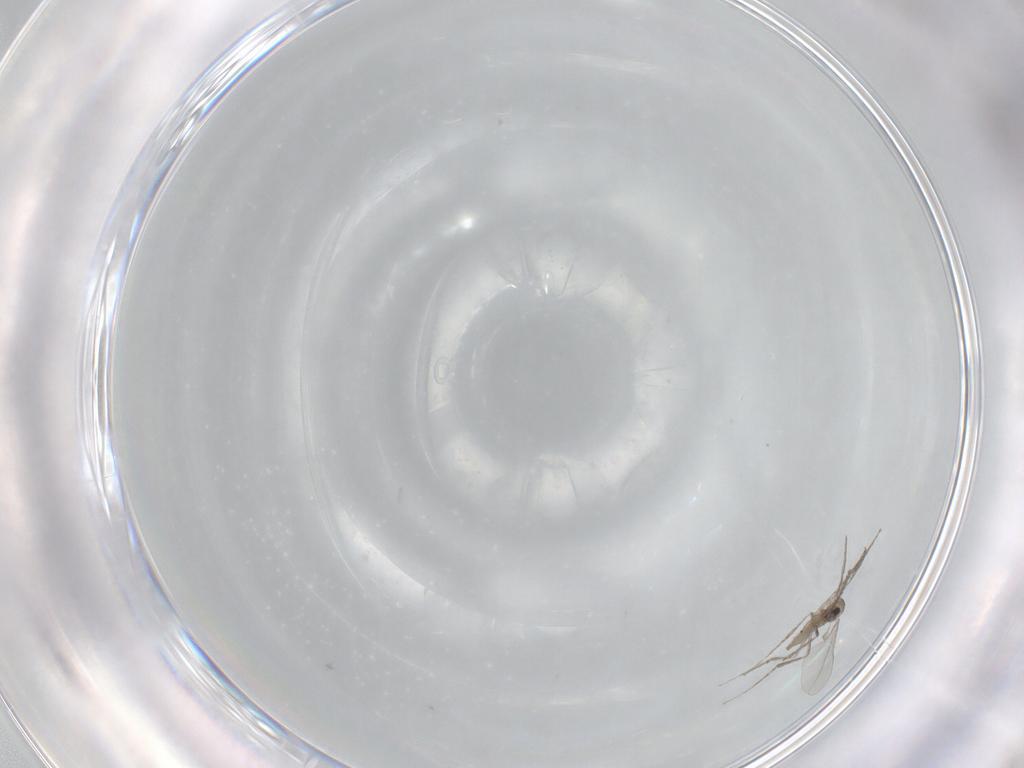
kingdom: Animalia
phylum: Arthropoda
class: Insecta
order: Diptera
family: Cecidomyiidae
